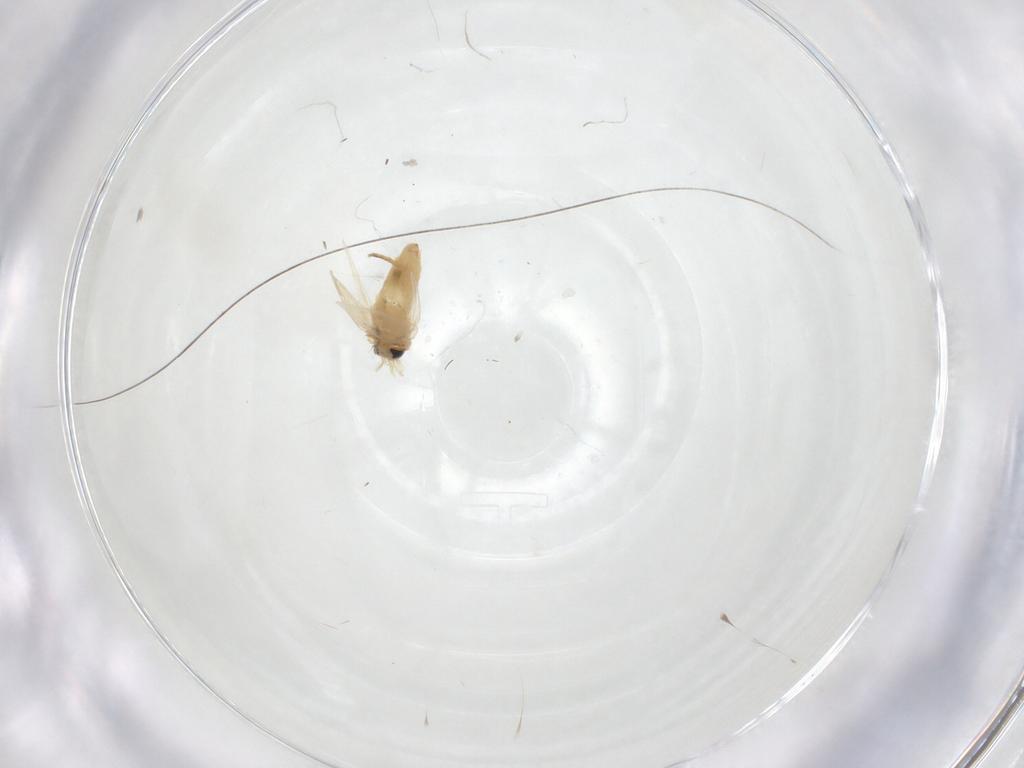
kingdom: Animalia
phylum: Arthropoda
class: Insecta
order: Lepidoptera
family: Crambidae
